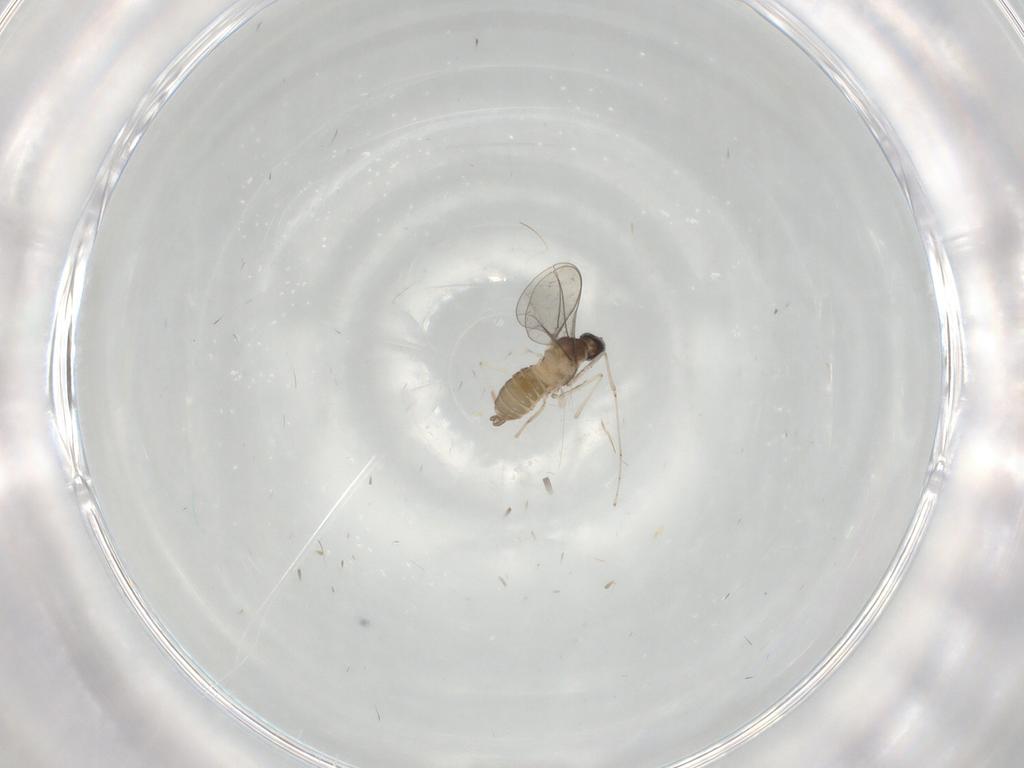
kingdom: Animalia
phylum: Arthropoda
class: Insecta
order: Diptera
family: Cecidomyiidae
